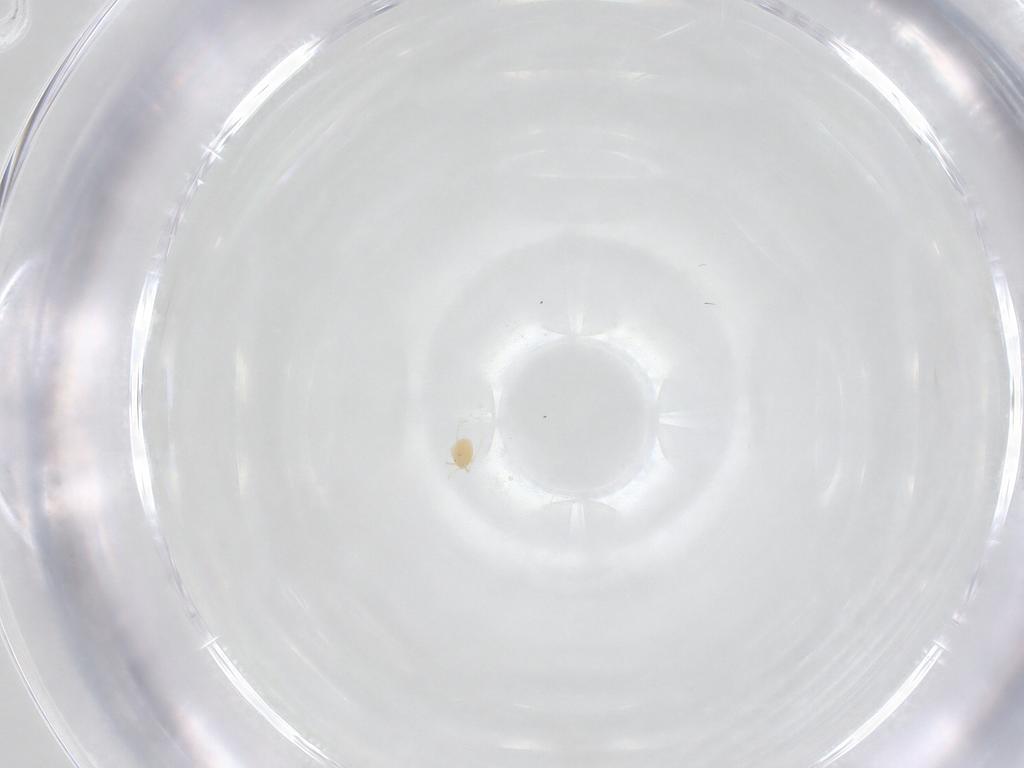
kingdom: Animalia
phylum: Arthropoda
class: Arachnida
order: Trombidiformes
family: Torrenticolidae
